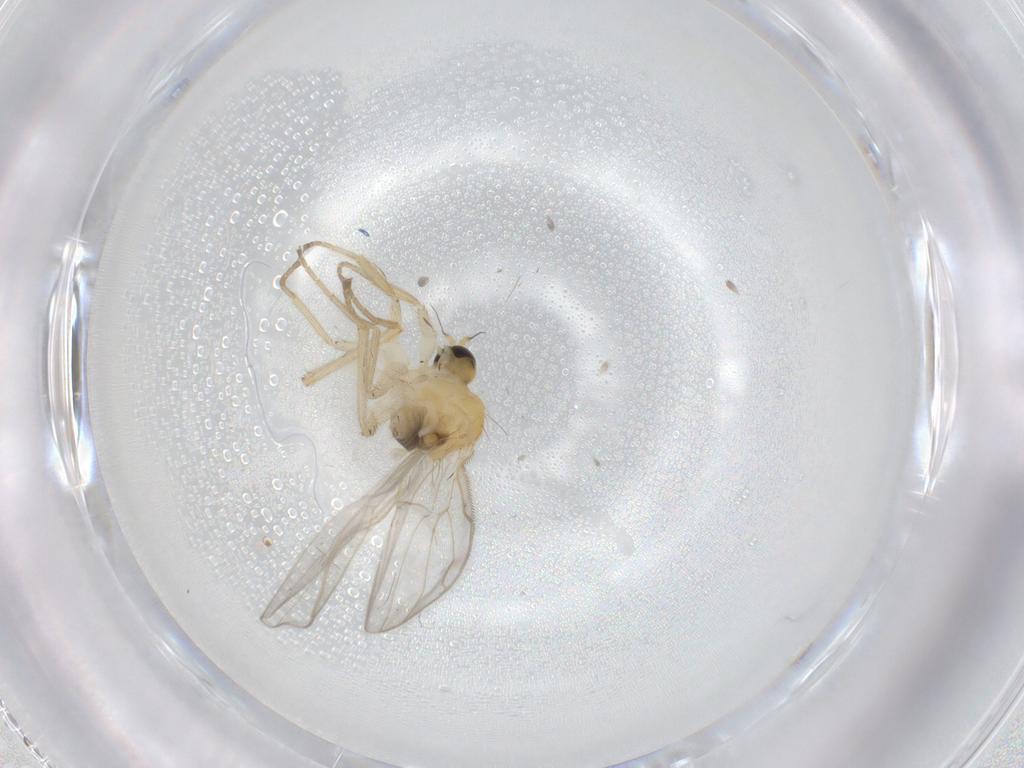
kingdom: Animalia
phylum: Arthropoda
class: Insecta
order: Diptera
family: Hybotidae
